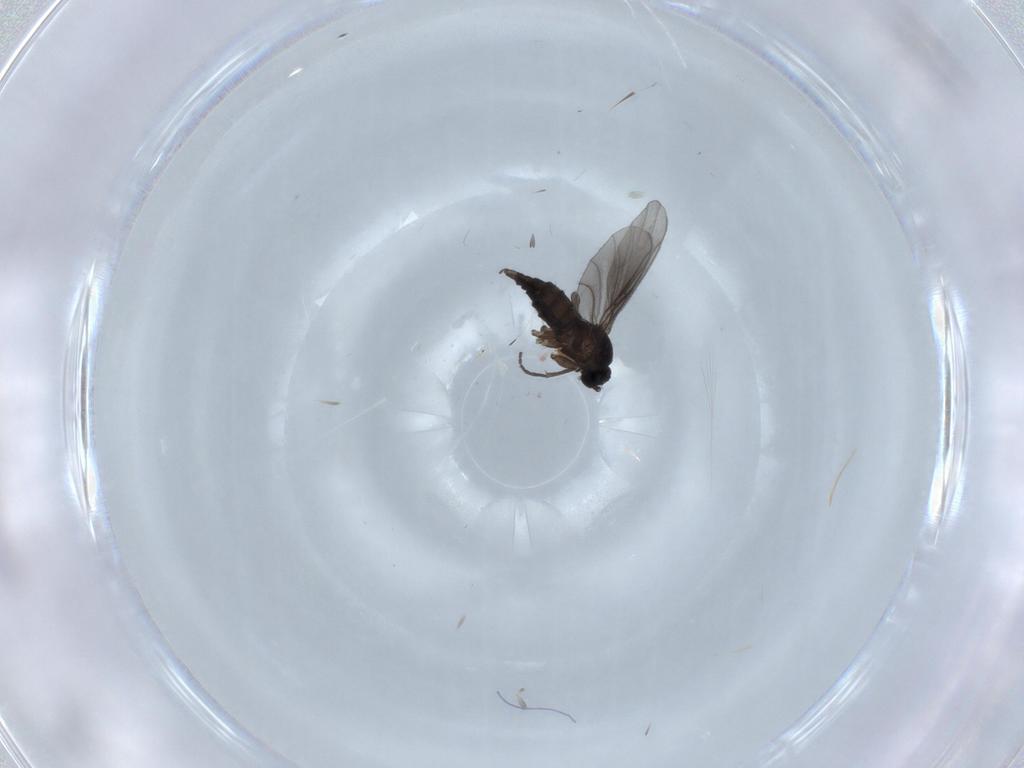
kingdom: Animalia
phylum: Arthropoda
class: Insecta
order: Diptera
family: Sciaridae
